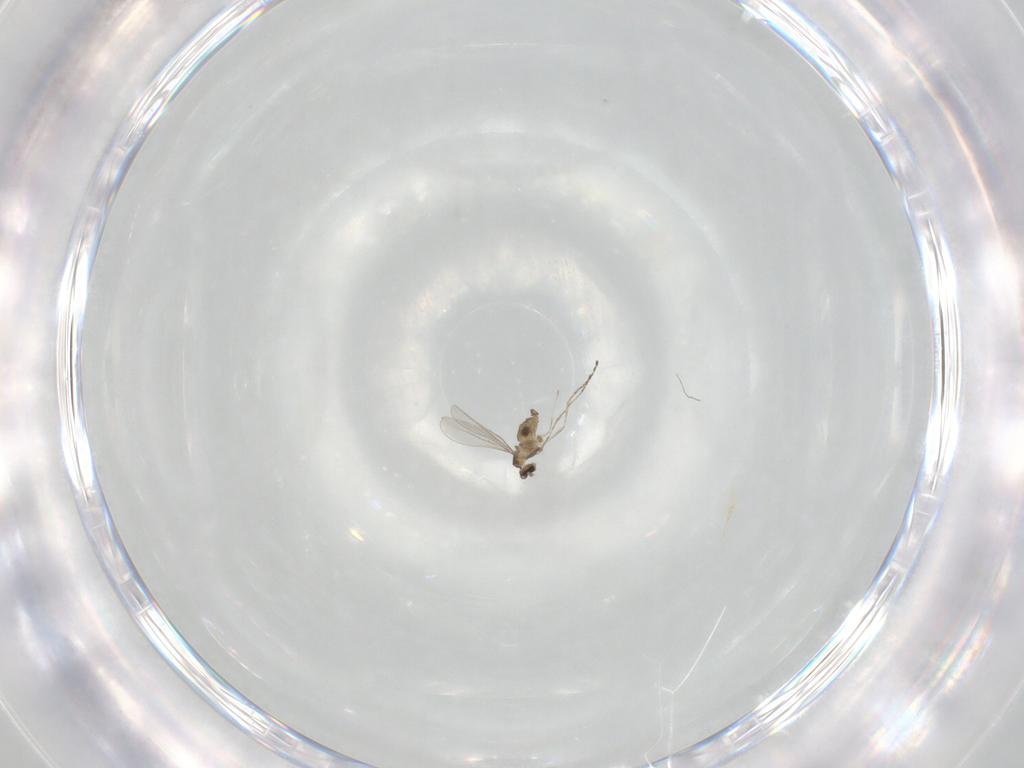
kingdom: Animalia
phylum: Arthropoda
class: Insecta
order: Diptera
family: Cecidomyiidae
